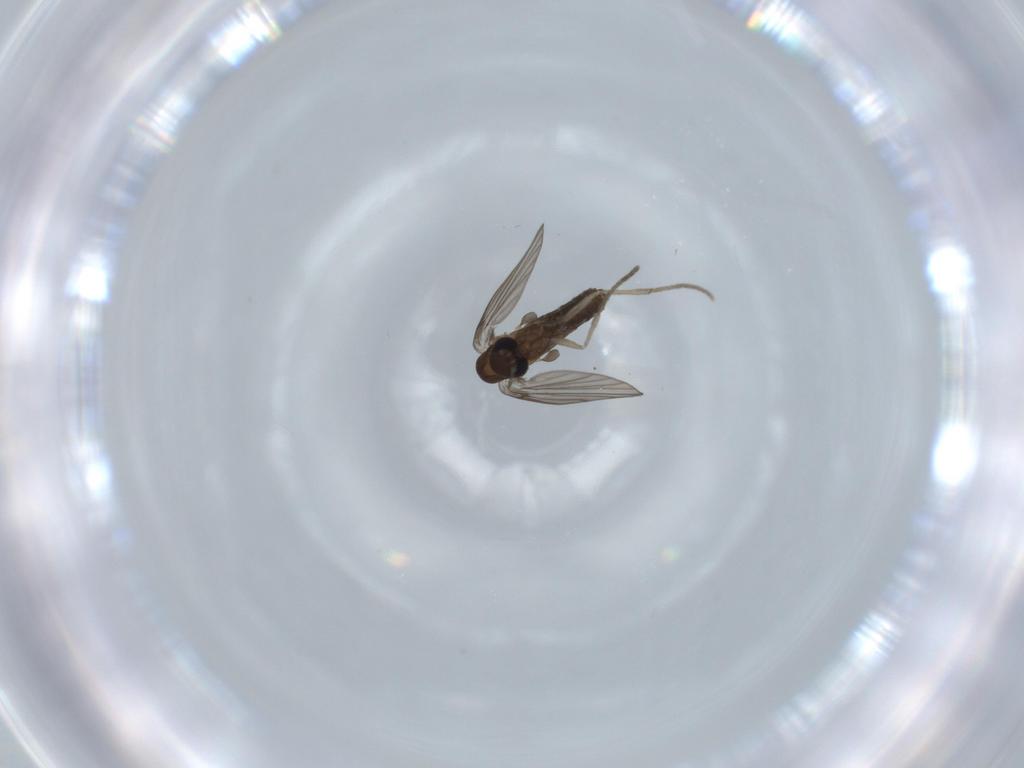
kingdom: Animalia
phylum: Arthropoda
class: Insecta
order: Diptera
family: Psychodidae
